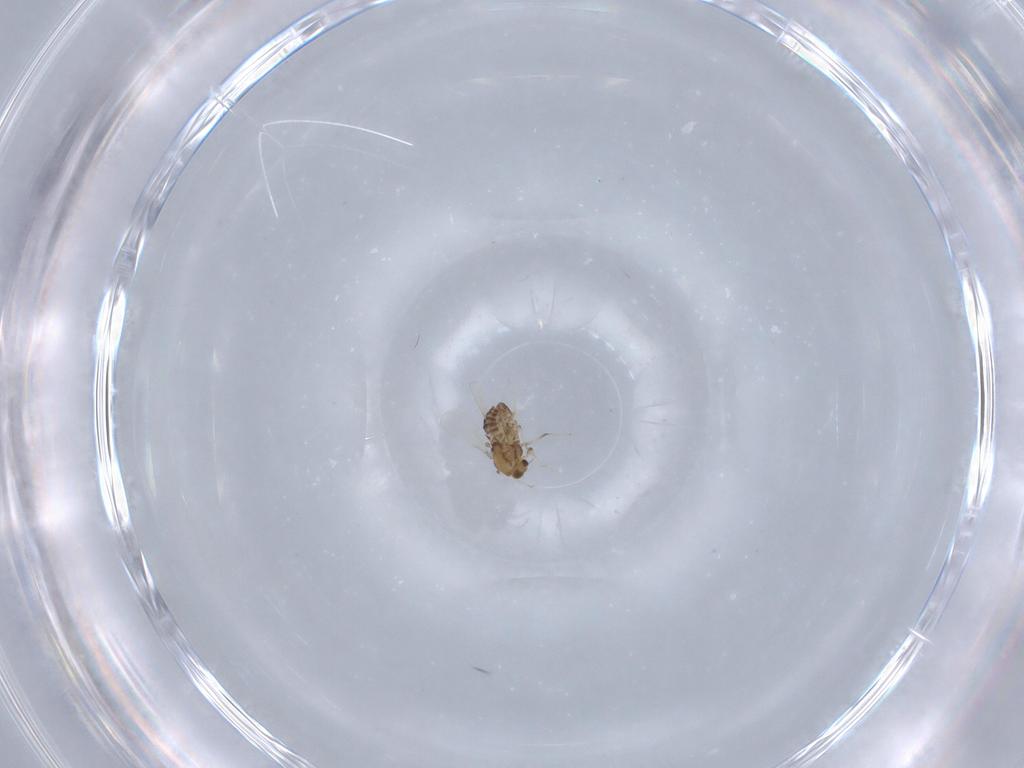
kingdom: Animalia
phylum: Arthropoda
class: Insecta
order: Diptera
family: Chironomidae
